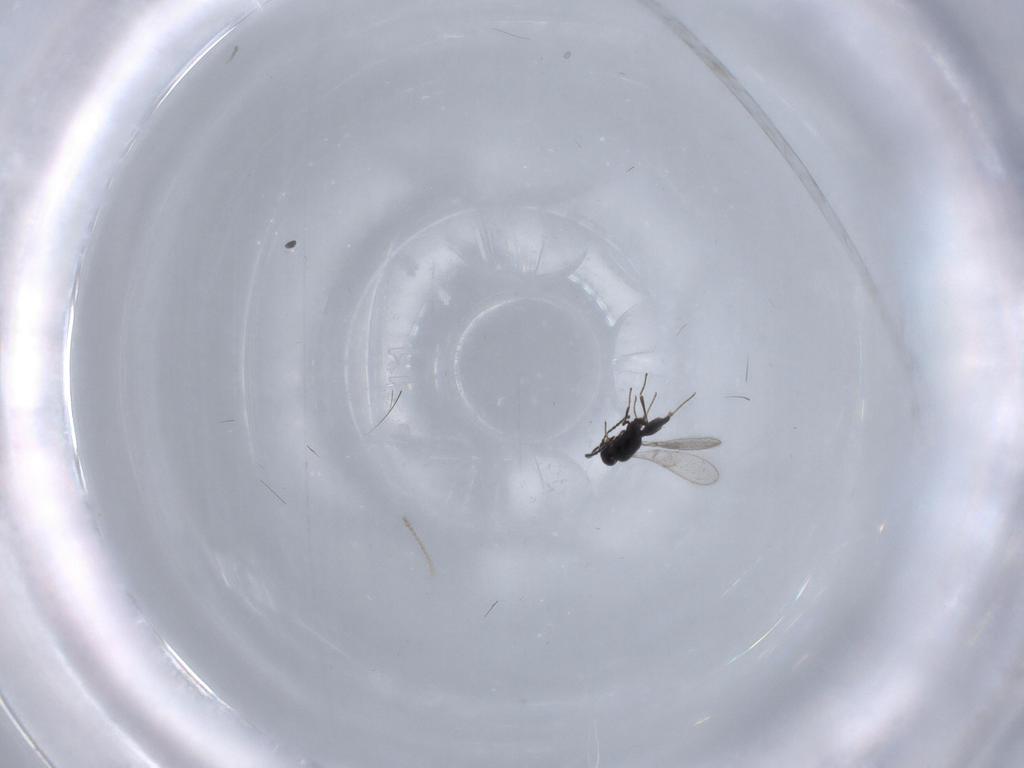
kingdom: Animalia
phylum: Arthropoda
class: Insecta
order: Hymenoptera
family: Scelionidae
